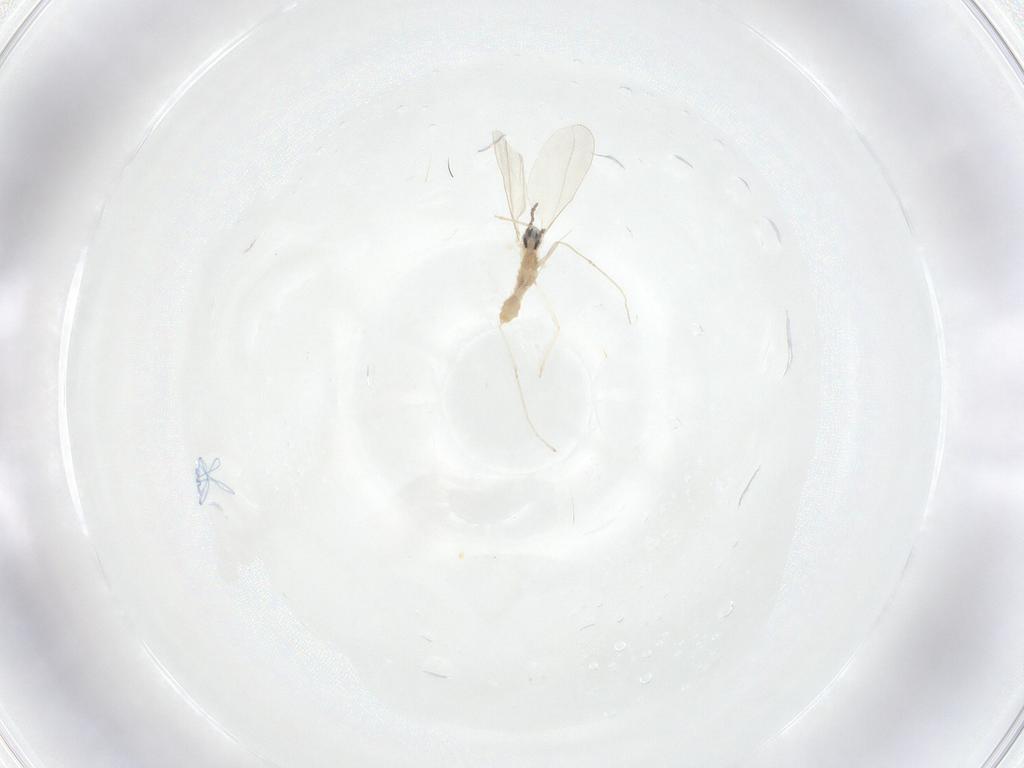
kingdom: Animalia
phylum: Arthropoda
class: Insecta
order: Diptera
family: Cecidomyiidae
